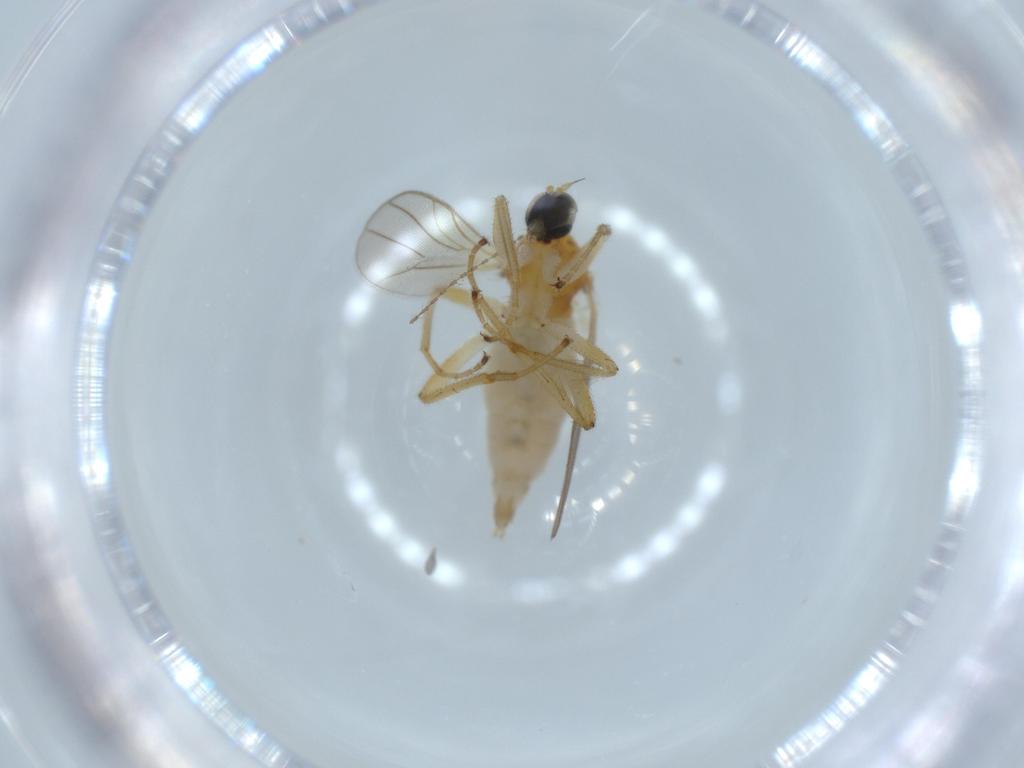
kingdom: Animalia
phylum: Arthropoda
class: Insecta
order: Diptera
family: Hybotidae
